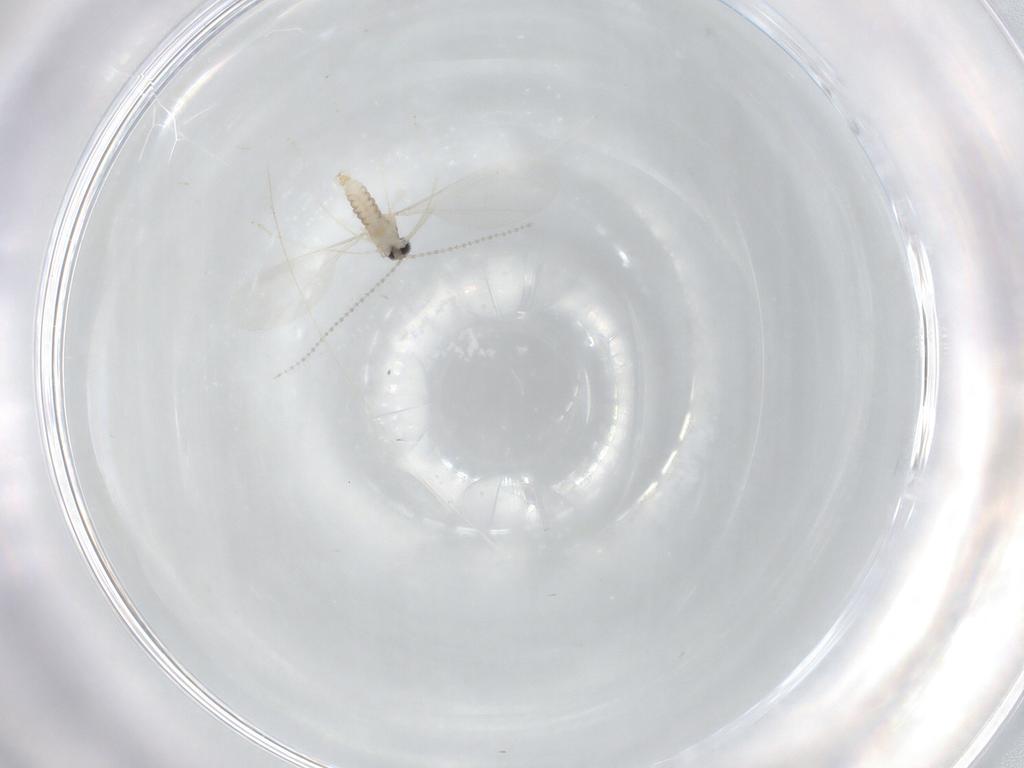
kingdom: Animalia
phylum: Arthropoda
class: Insecta
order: Diptera
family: Cecidomyiidae
